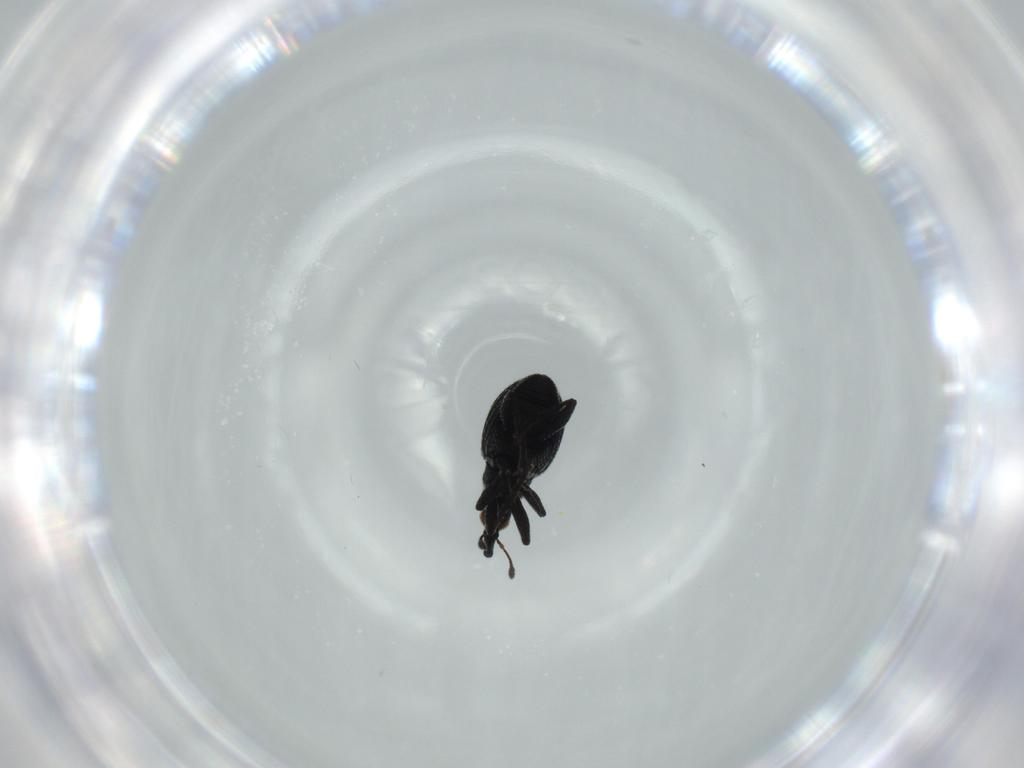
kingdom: Animalia
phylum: Arthropoda
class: Insecta
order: Coleoptera
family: Brentidae
